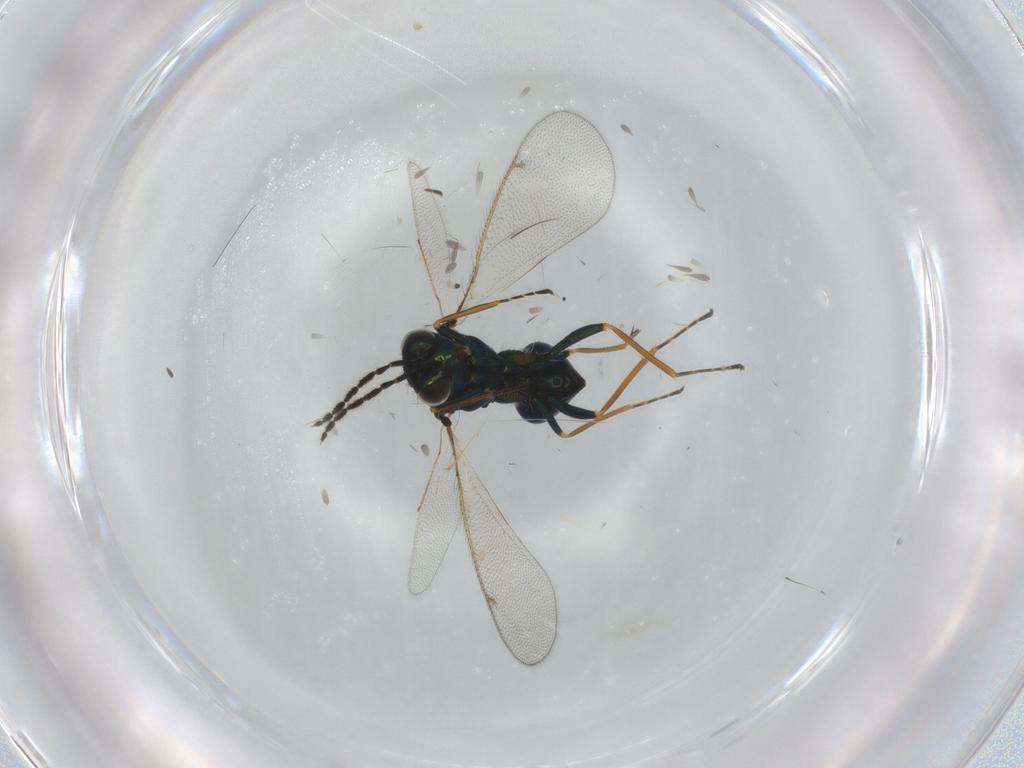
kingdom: Animalia
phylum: Arthropoda
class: Insecta
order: Hymenoptera
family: Eulophidae
